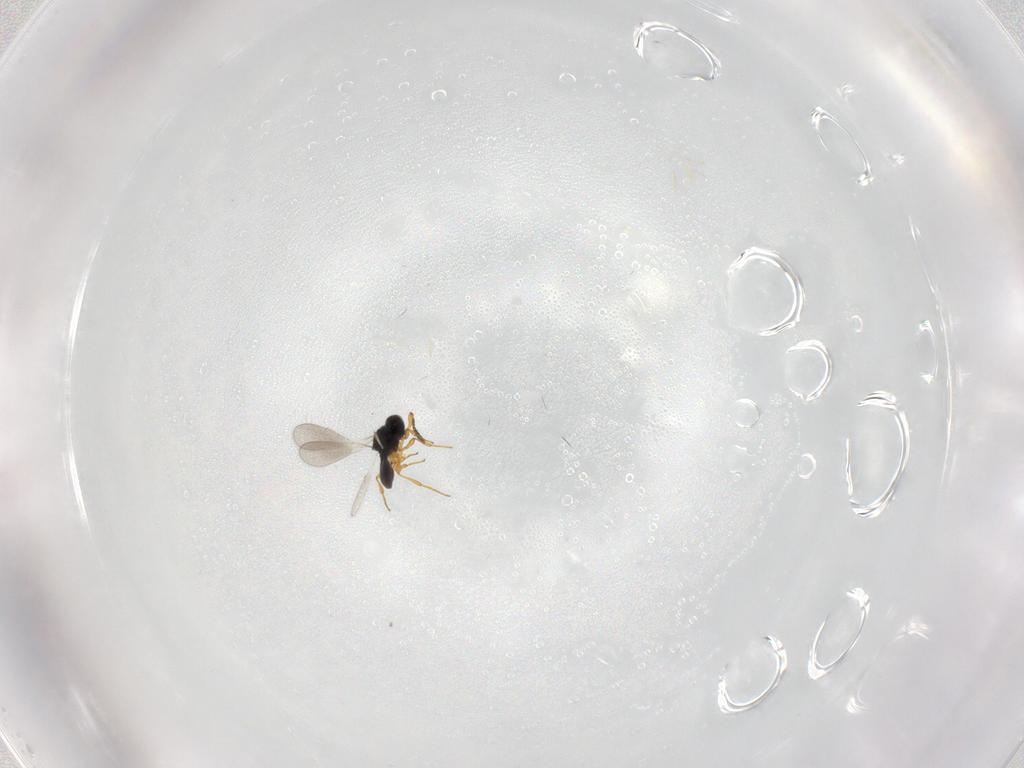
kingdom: Animalia
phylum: Arthropoda
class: Insecta
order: Hymenoptera
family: Platygastridae
